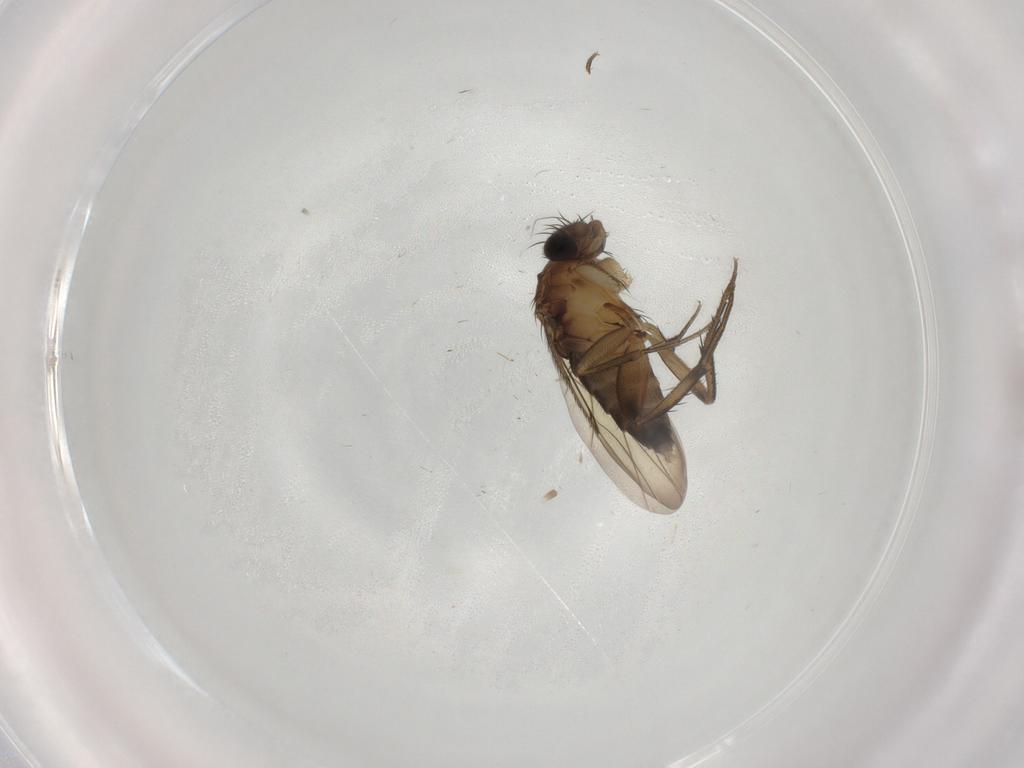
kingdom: Animalia
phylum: Arthropoda
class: Insecta
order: Diptera
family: Phoridae
